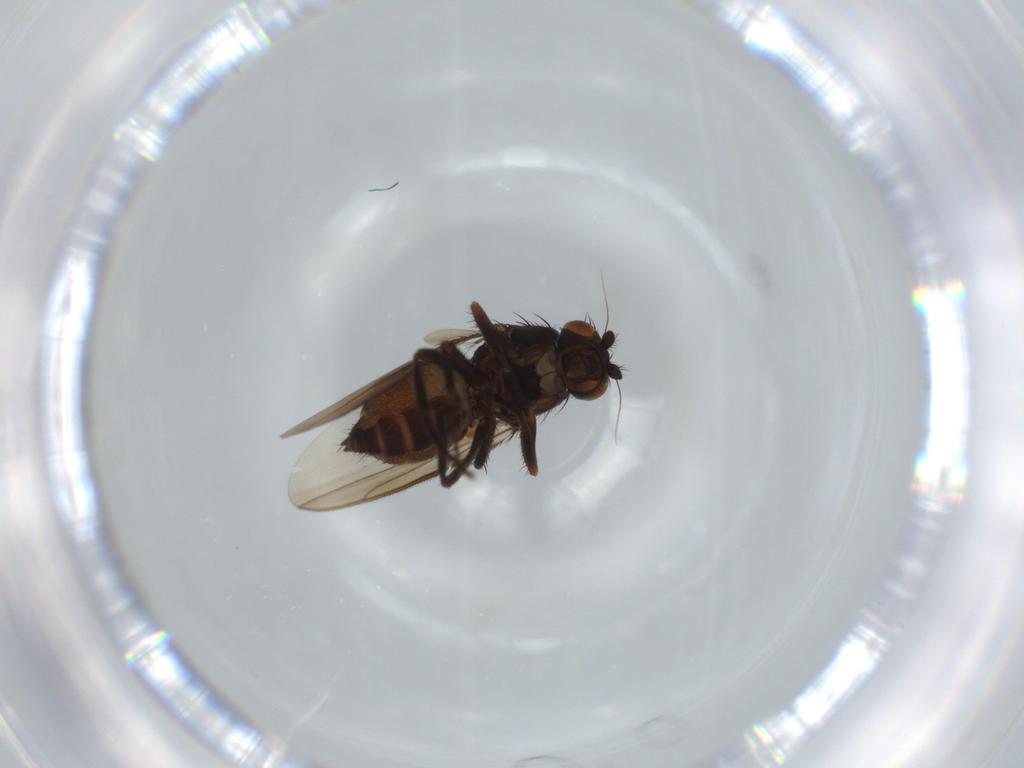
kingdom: Animalia
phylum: Arthropoda
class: Insecta
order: Diptera
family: Sphaeroceridae
